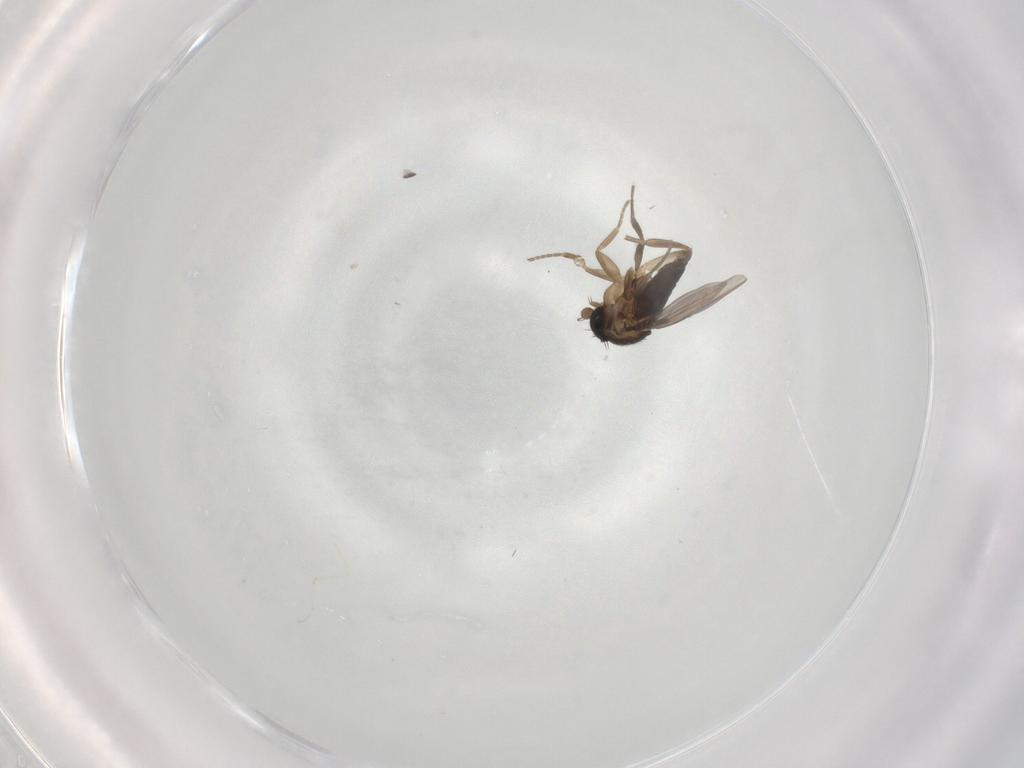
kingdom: Animalia
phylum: Arthropoda
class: Insecta
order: Diptera
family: Phoridae
